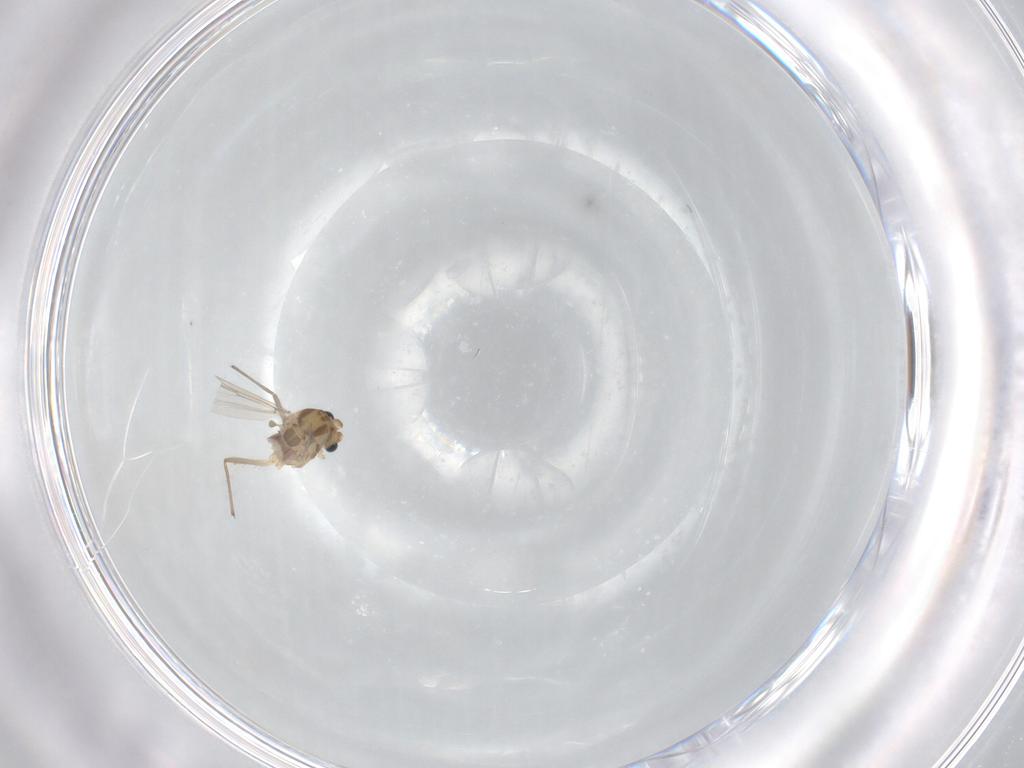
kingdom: Animalia
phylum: Arthropoda
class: Insecta
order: Diptera
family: Chironomidae
